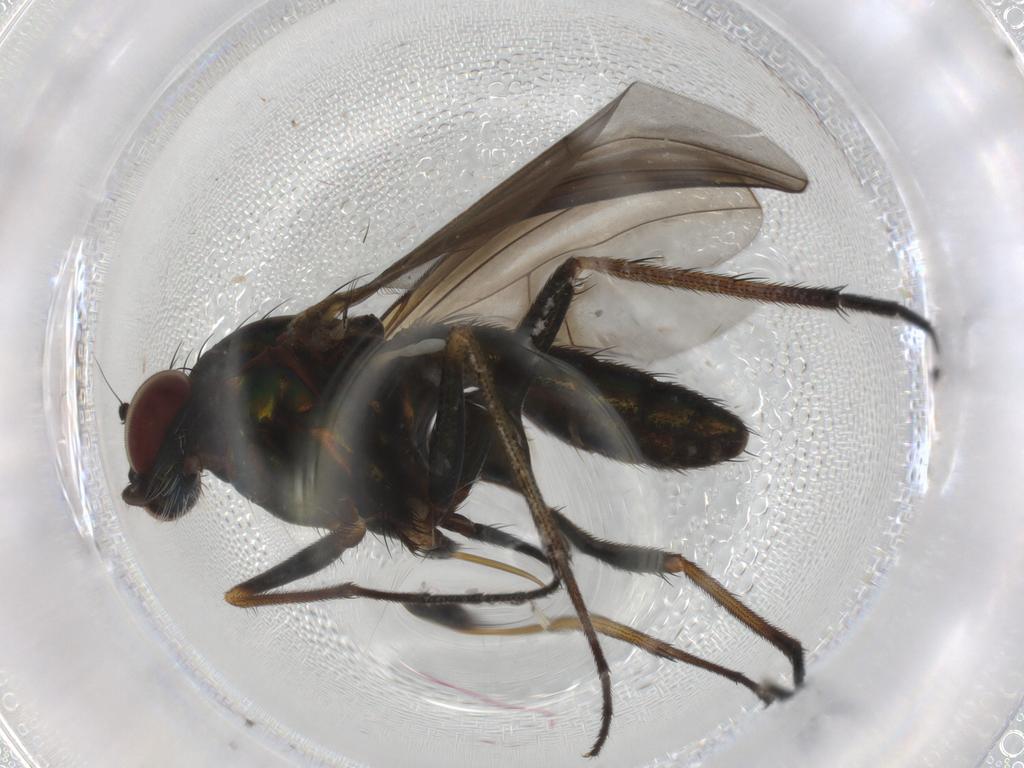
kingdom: Animalia
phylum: Arthropoda
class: Insecta
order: Diptera
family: Dolichopodidae
